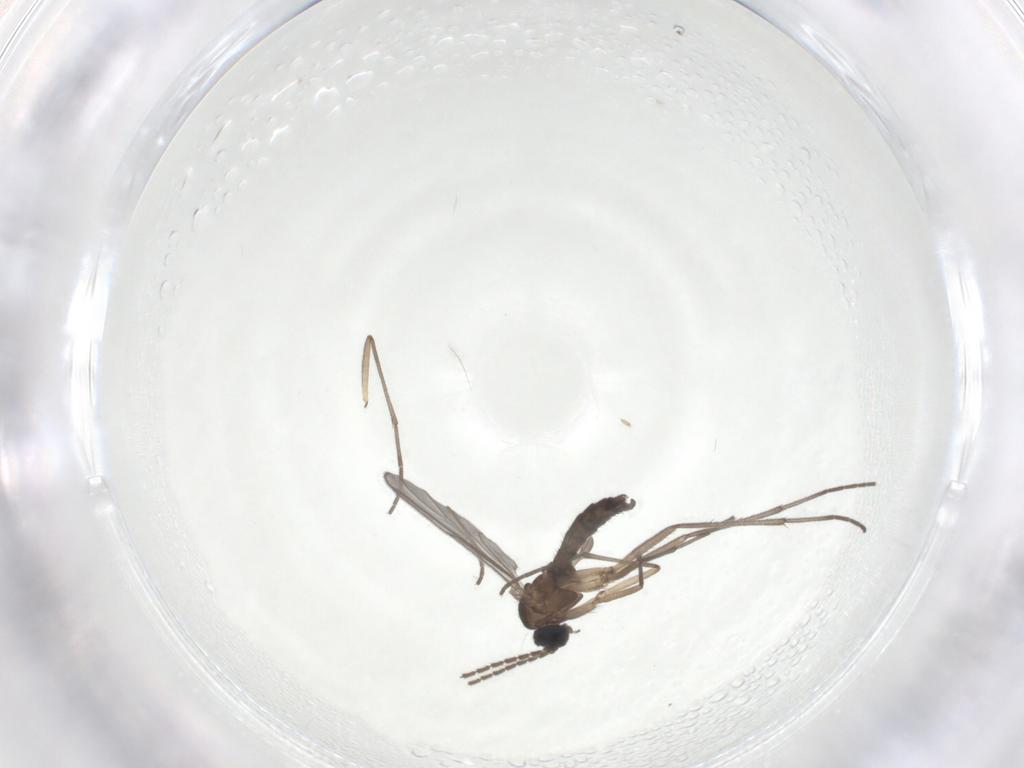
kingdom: Animalia
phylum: Arthropoda
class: Insecta
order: Diptera
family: Sciaridae
